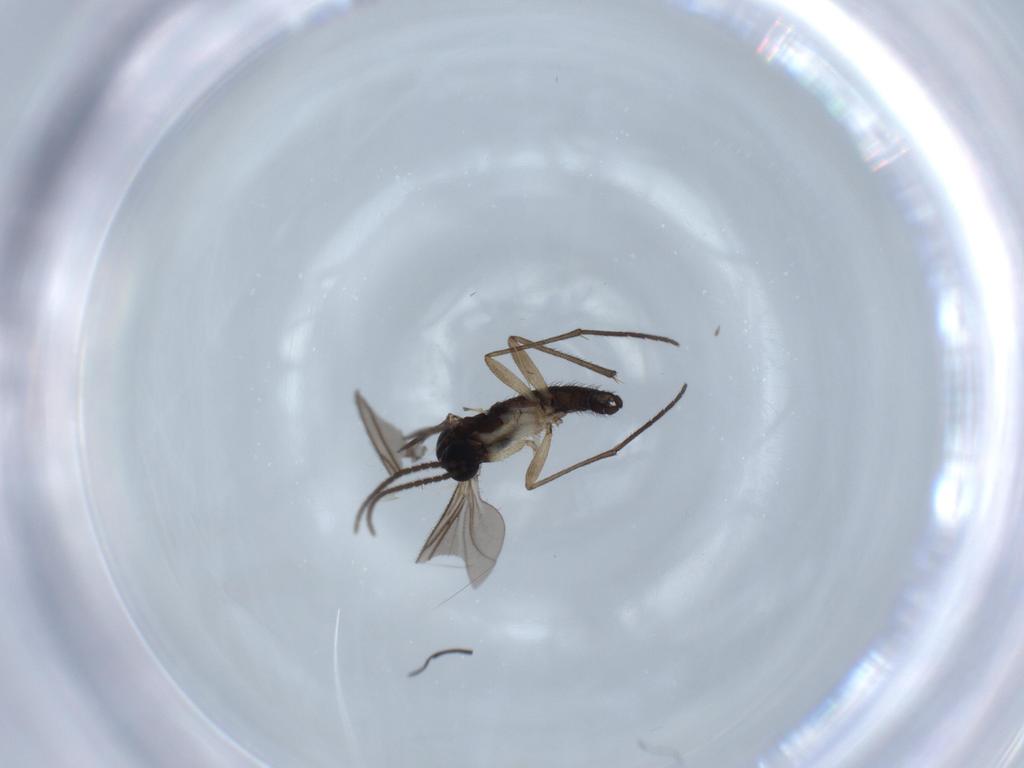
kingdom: Animalia
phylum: Arthropoda
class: Insecta
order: Diptera
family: Sciaridae
